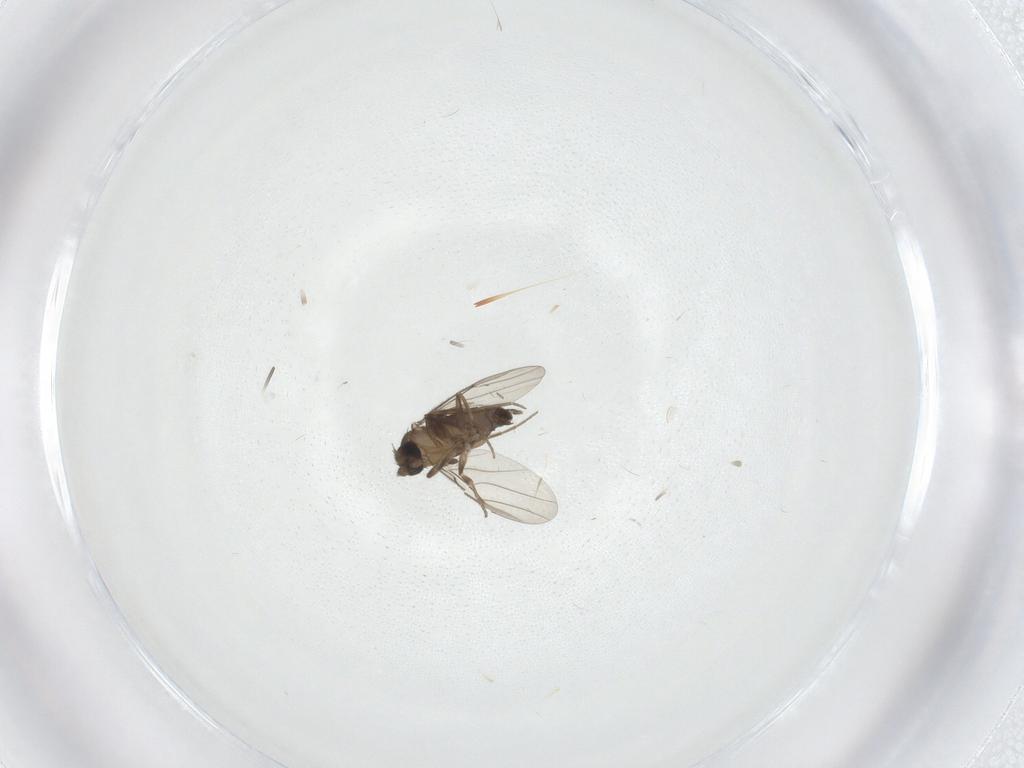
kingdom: Animalia
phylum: Arthropoda
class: Insecta
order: Diptera
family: Phoridae
